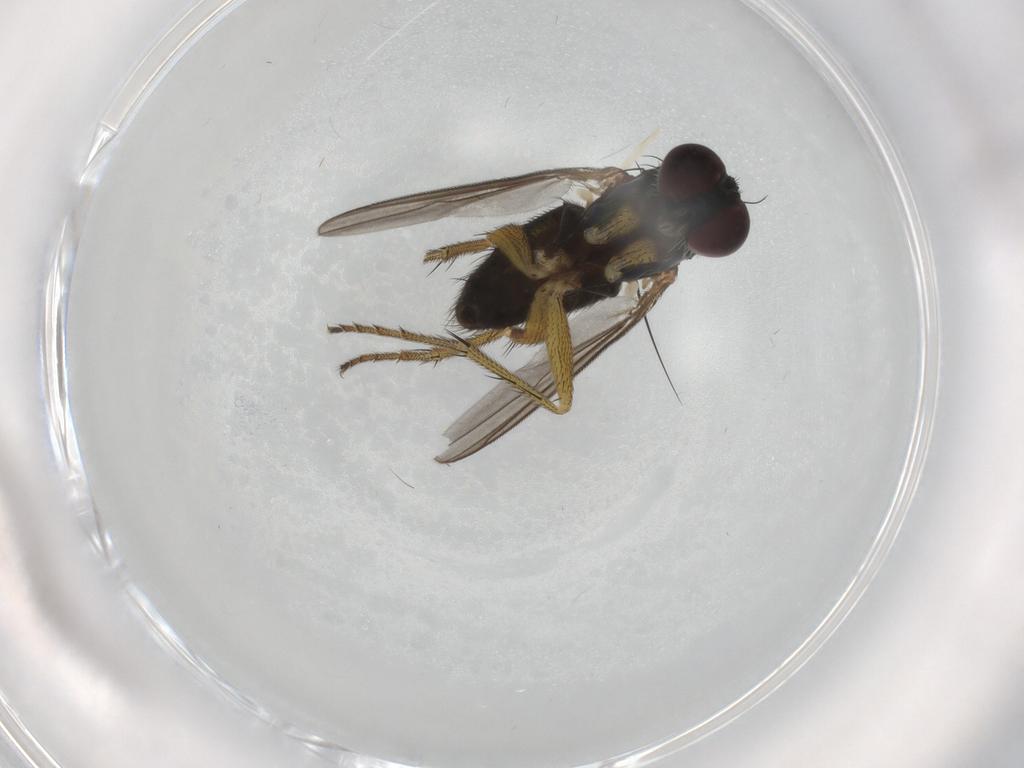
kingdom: Animalia
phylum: Arthropoda
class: Insecta
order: Diptera
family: Dolichopodidae
